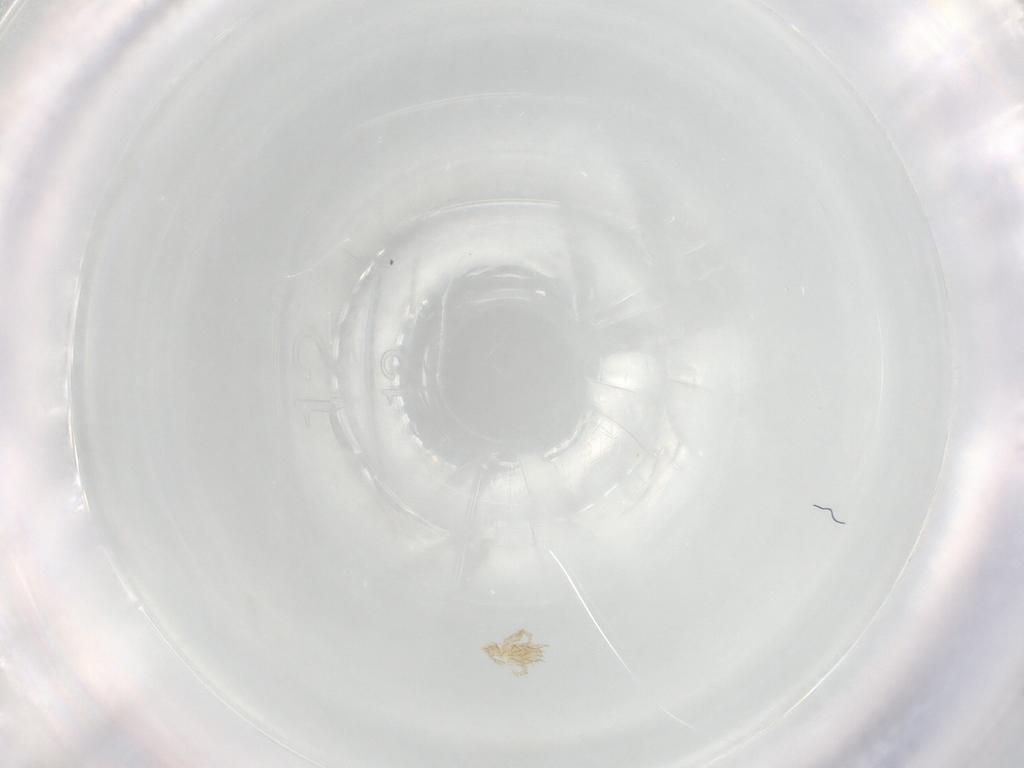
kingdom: Animalia
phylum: Arthropoda
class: Arachnida
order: Trombidiformes
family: Erythraeidae
